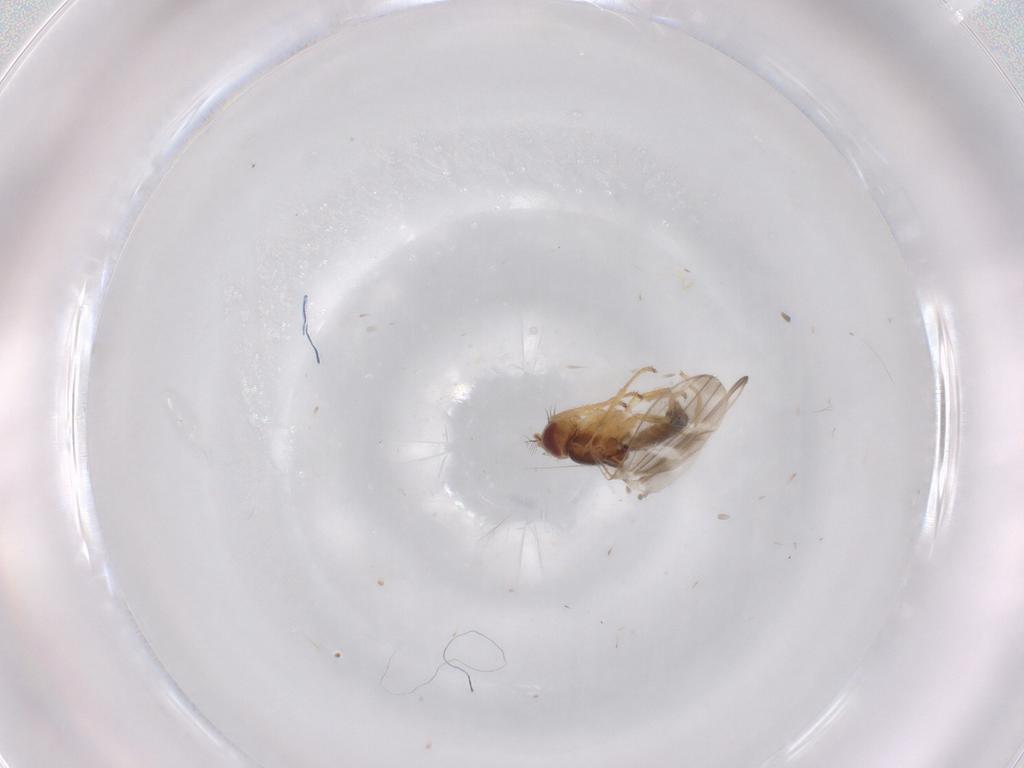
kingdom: Animalia
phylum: Arthropoda
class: Insecta
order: Diptera
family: Periscelididae
